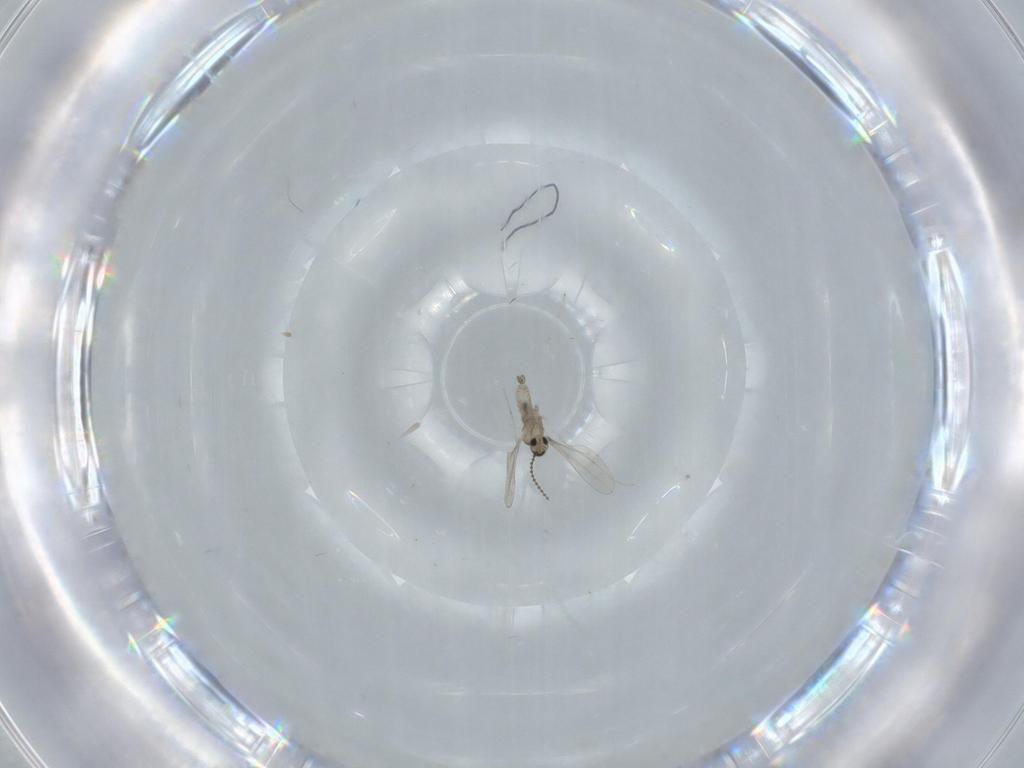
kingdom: Animalia
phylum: Arthropoda
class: Insecta
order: Diptera
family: Cecidomyiidae
